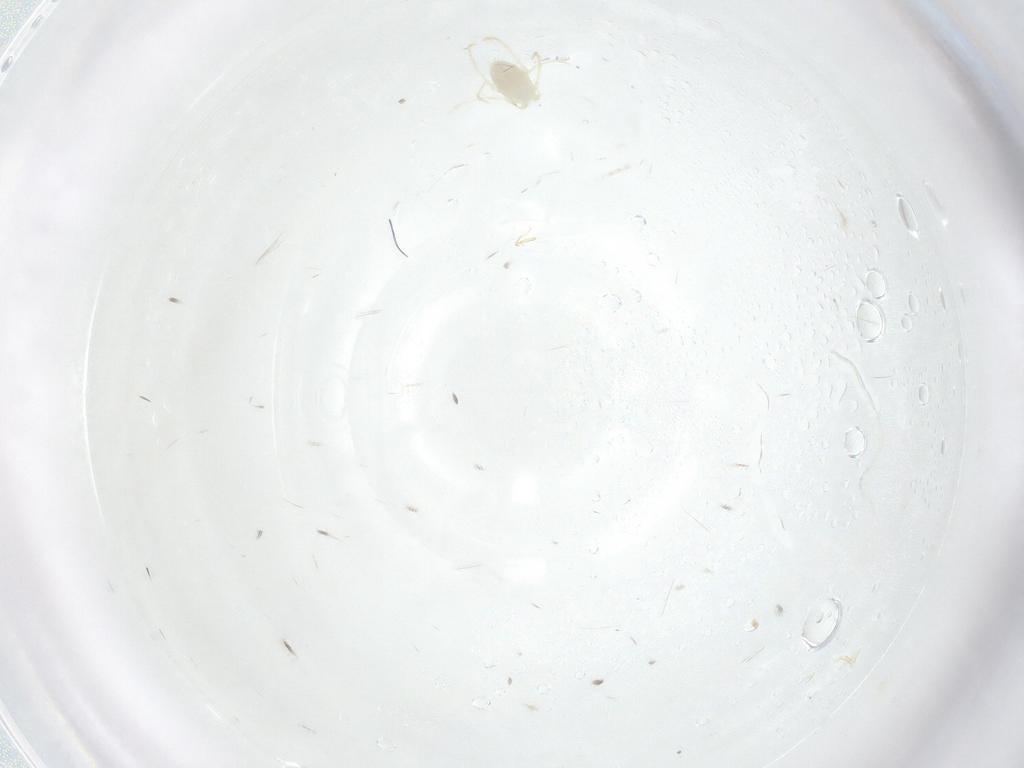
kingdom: Animalia
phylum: Arthropoda
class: Arachnida
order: Trombidiformes
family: Erythraeidae
